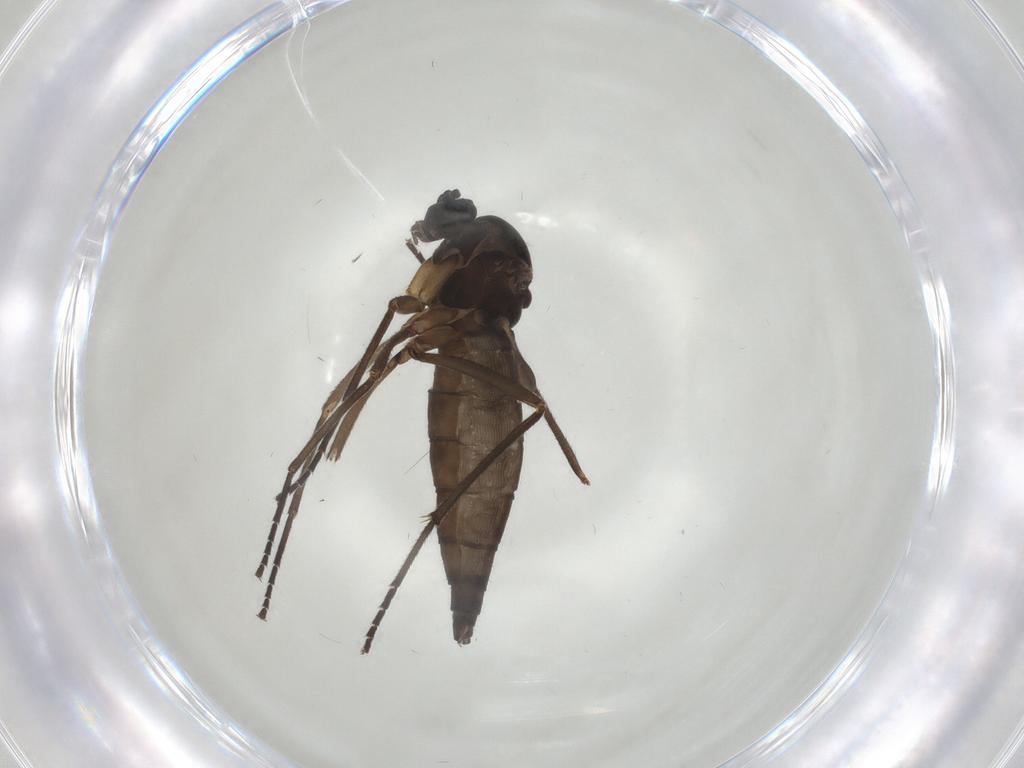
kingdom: Animalia
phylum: Arthropoda
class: Insecta
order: Diptera
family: Sciaridae
